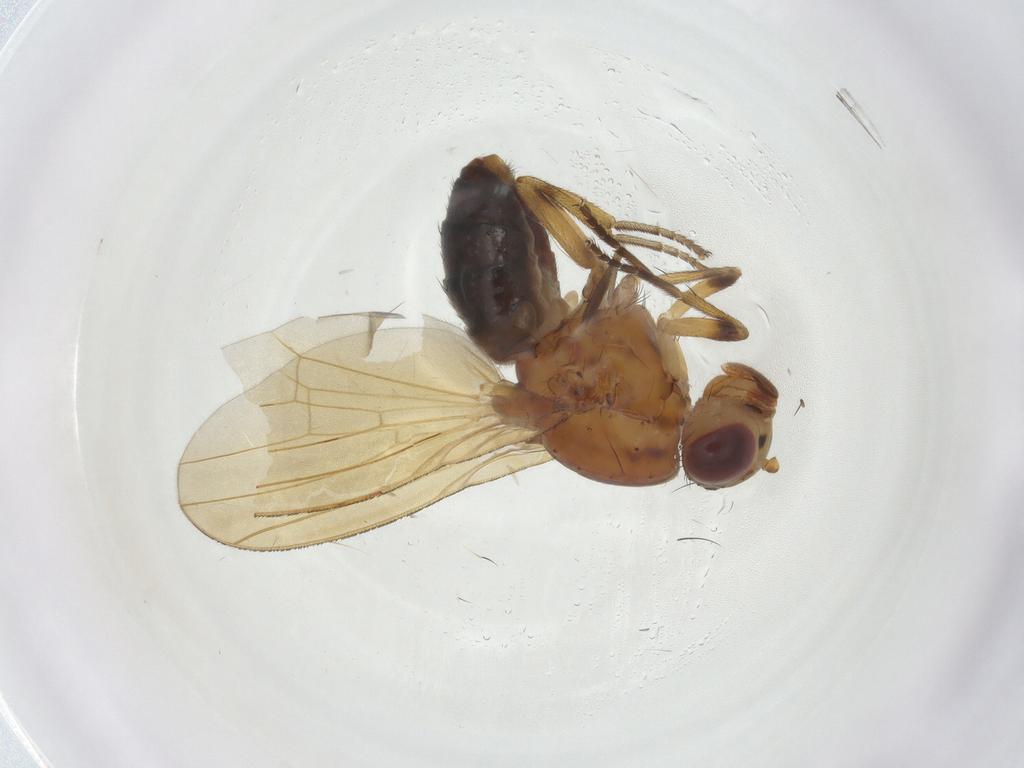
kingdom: Animalia
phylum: Arthropoda
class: Insecta
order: Diptera
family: Sciaridae
